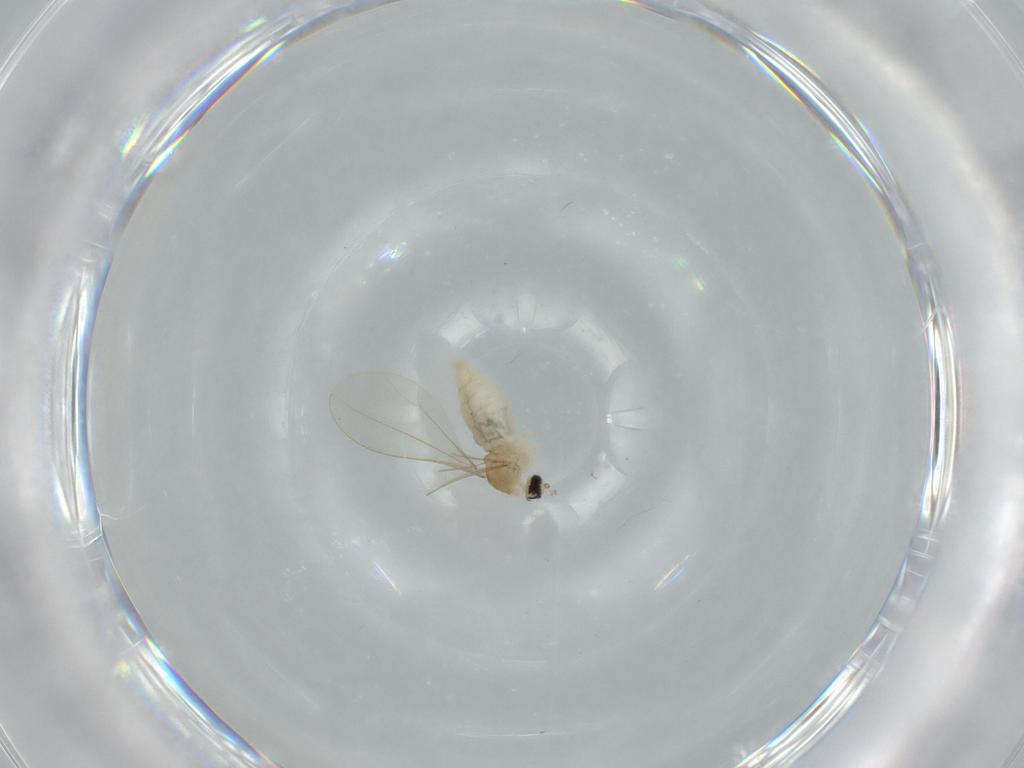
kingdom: Animalia
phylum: Arthropoda
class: Insecta
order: Diptera
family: Cecidomyiidae
